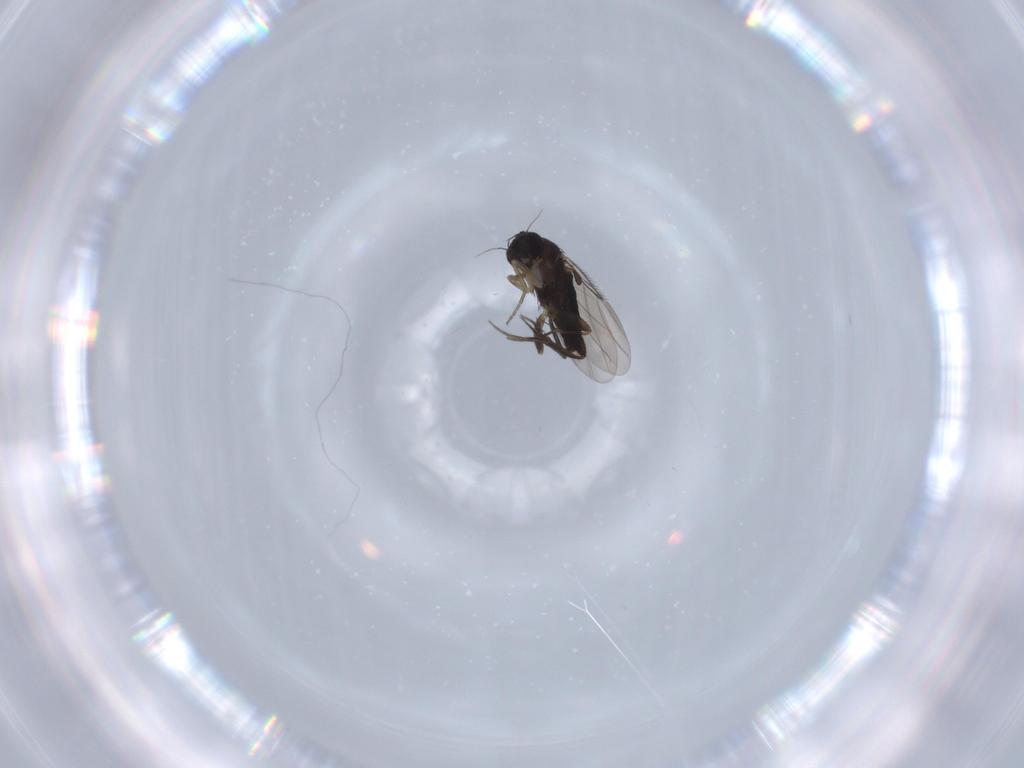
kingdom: Animalia
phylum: Arthropoda
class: Insecta
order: Diptera
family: Phoridae
